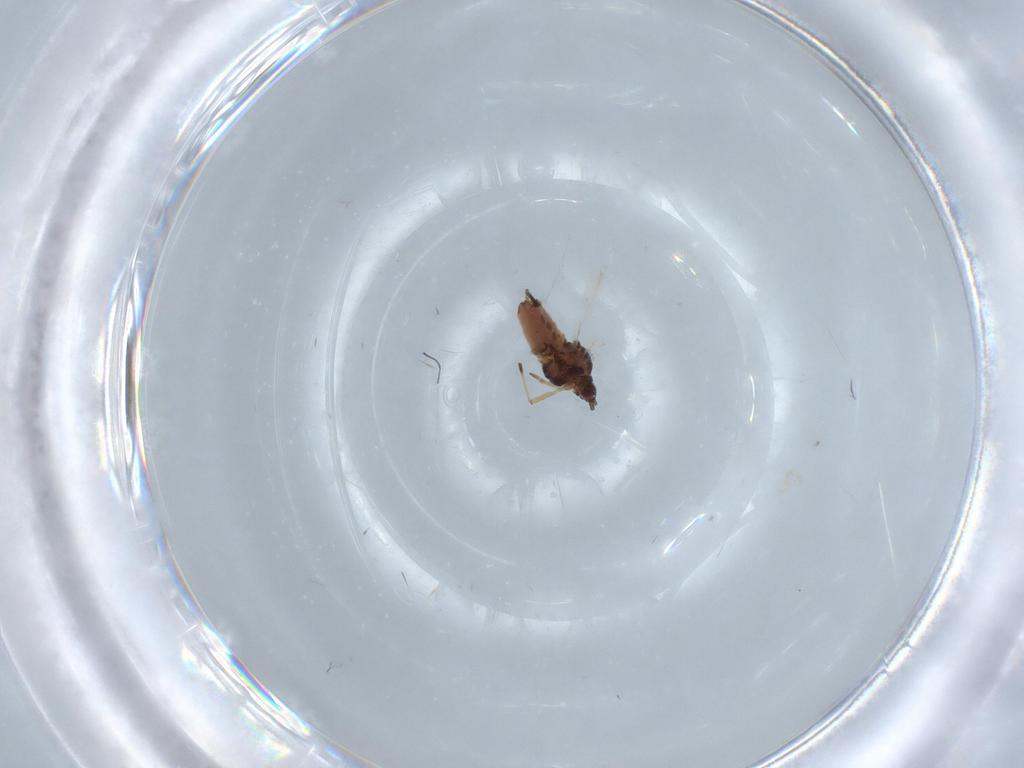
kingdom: Animalia
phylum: Arthropoda
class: Insecta
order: Hemiptera
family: Aphididae
